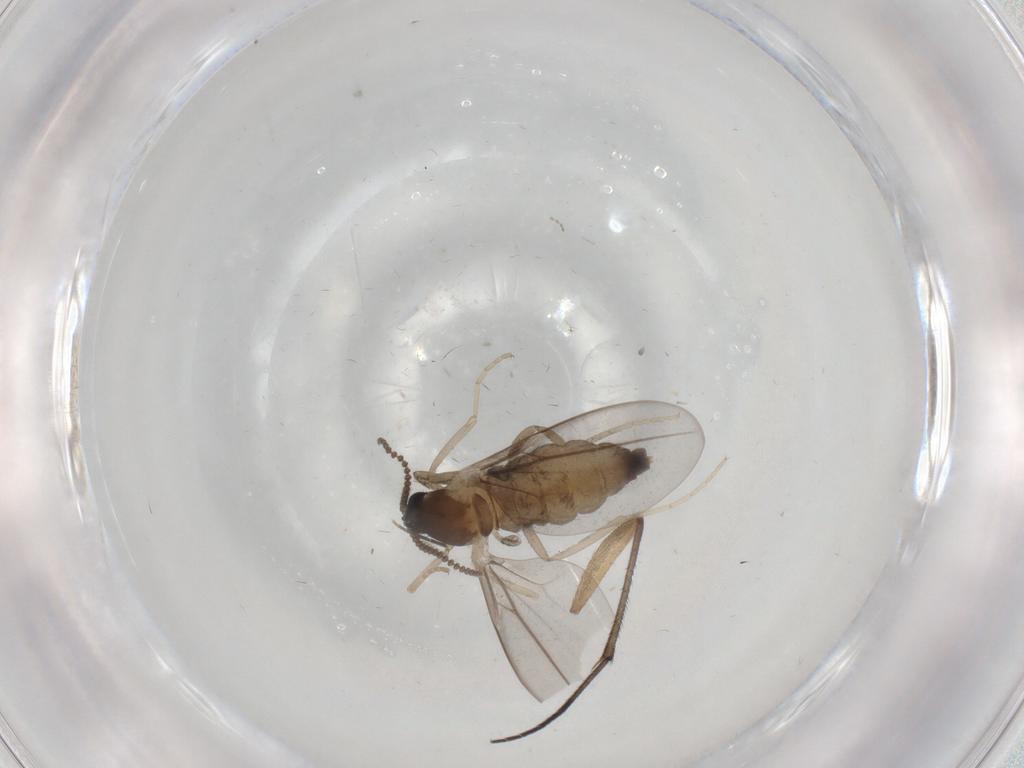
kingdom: Animalia
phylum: Arthropoda
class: Insecta
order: Diptera
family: Cecidomyiidae
